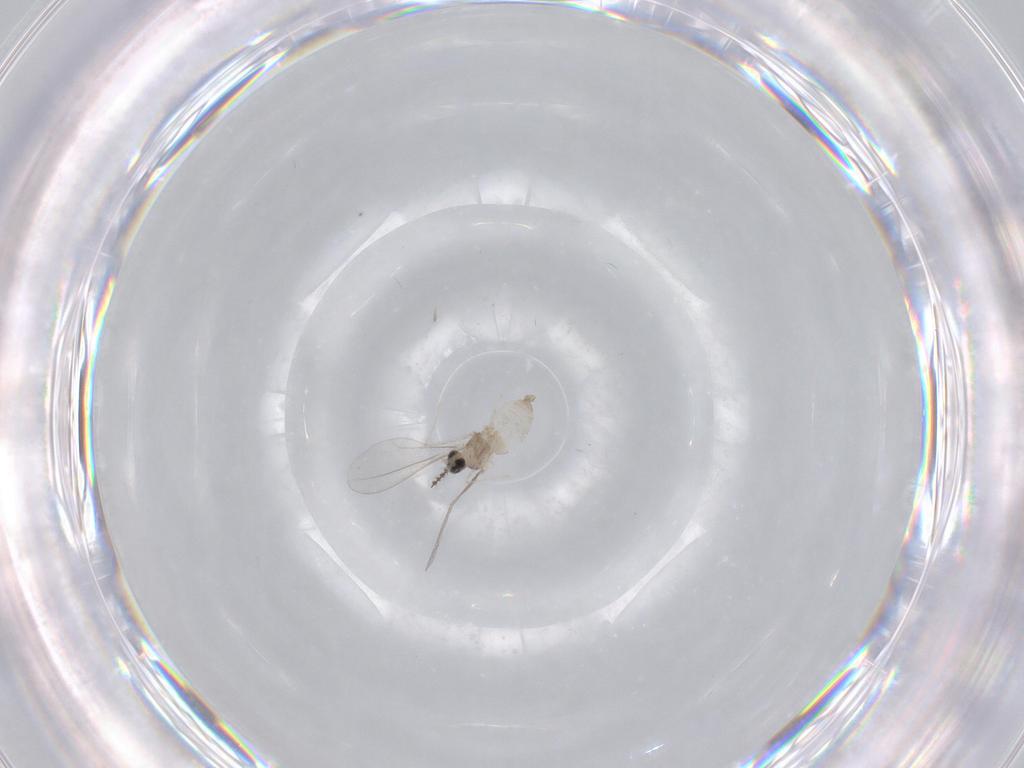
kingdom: Animalia
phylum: Arthropoda
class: Insecta
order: Diptera
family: Cecidomyiidae
